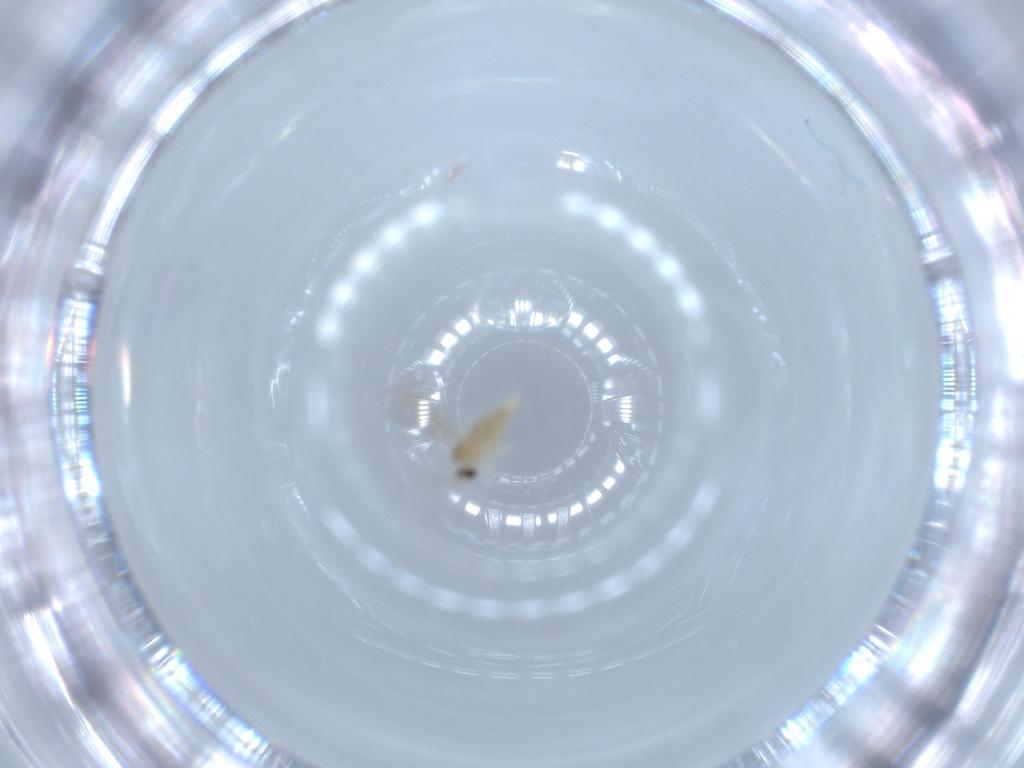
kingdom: Animalia
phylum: Arthropoda
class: Insecta
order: Diptera
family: Cecidomyiidae
